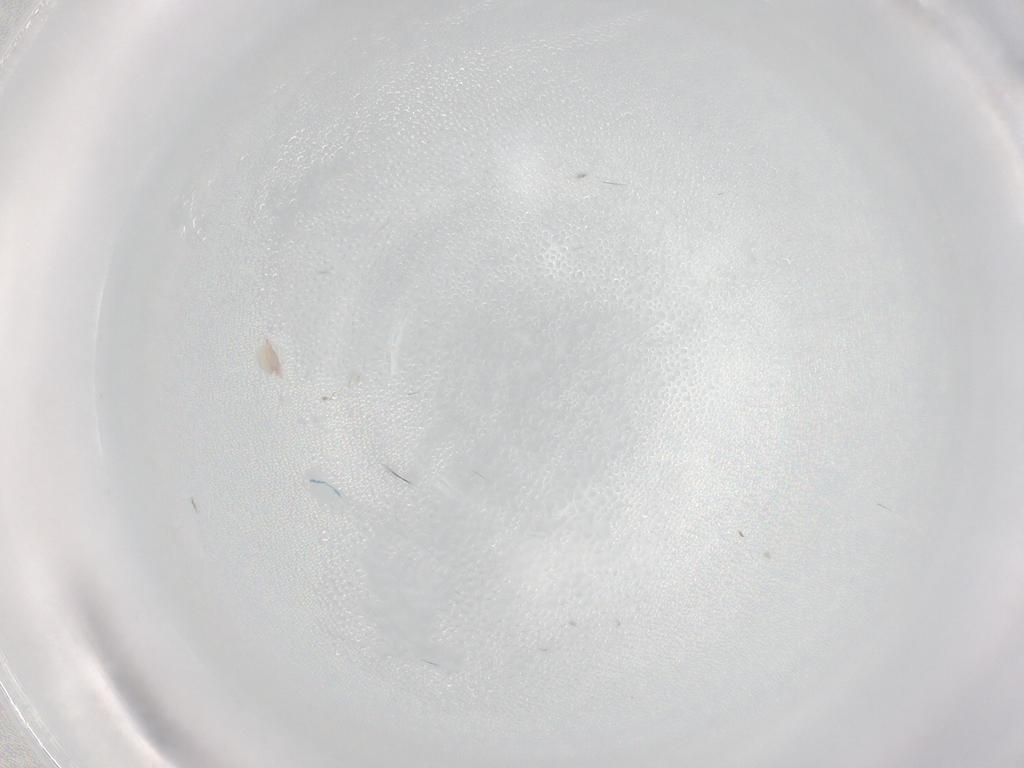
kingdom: Animalia
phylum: Arthropoda
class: Arachnida
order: Trombidiformes
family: Lebertiidae
